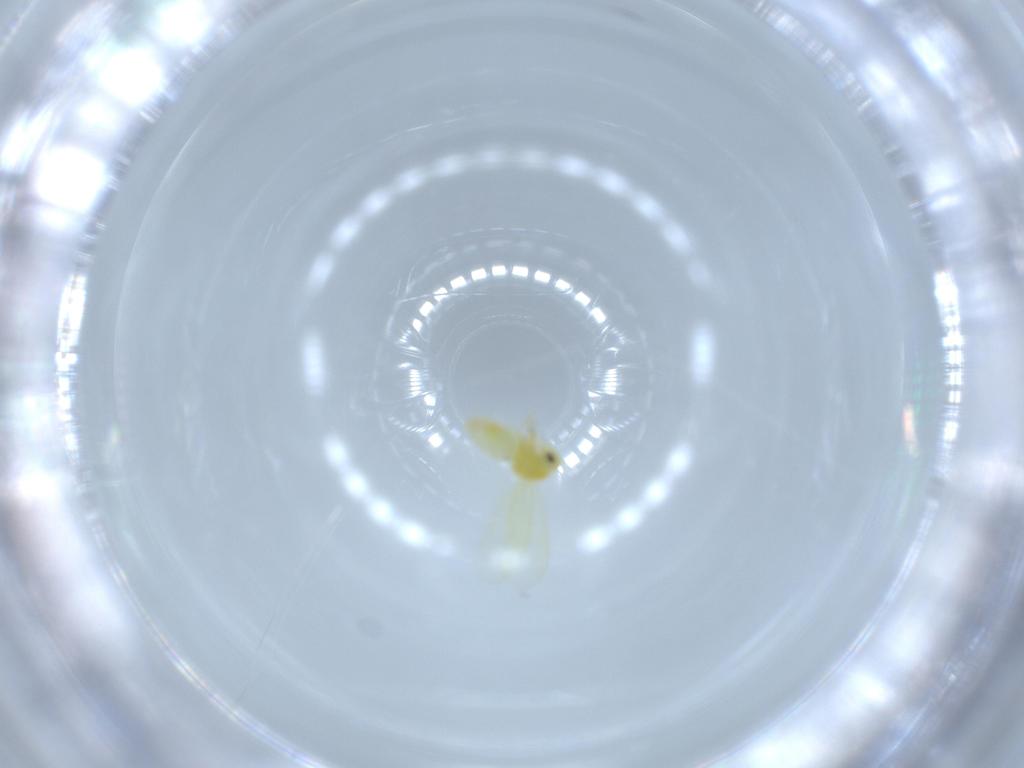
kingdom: Animalia
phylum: Arthropoda
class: Insecta
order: Hemiptera
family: Aleyrodidae
